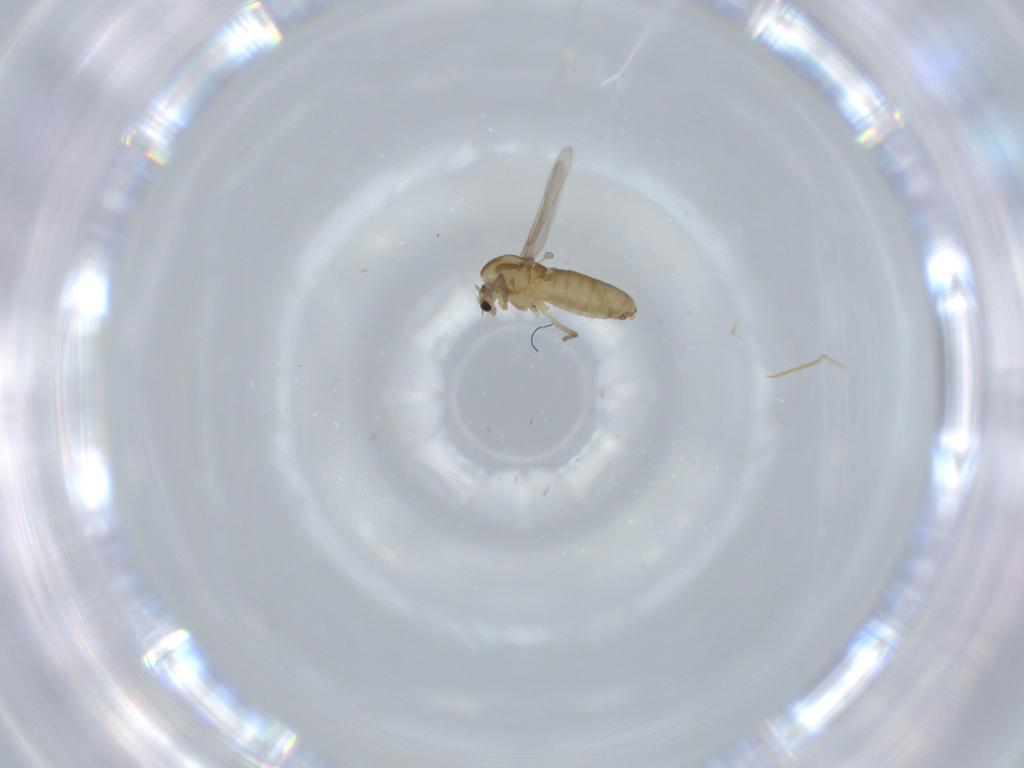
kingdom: Animalia
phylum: Arthropoda
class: Insecta
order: Diptera
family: Chironomidae
